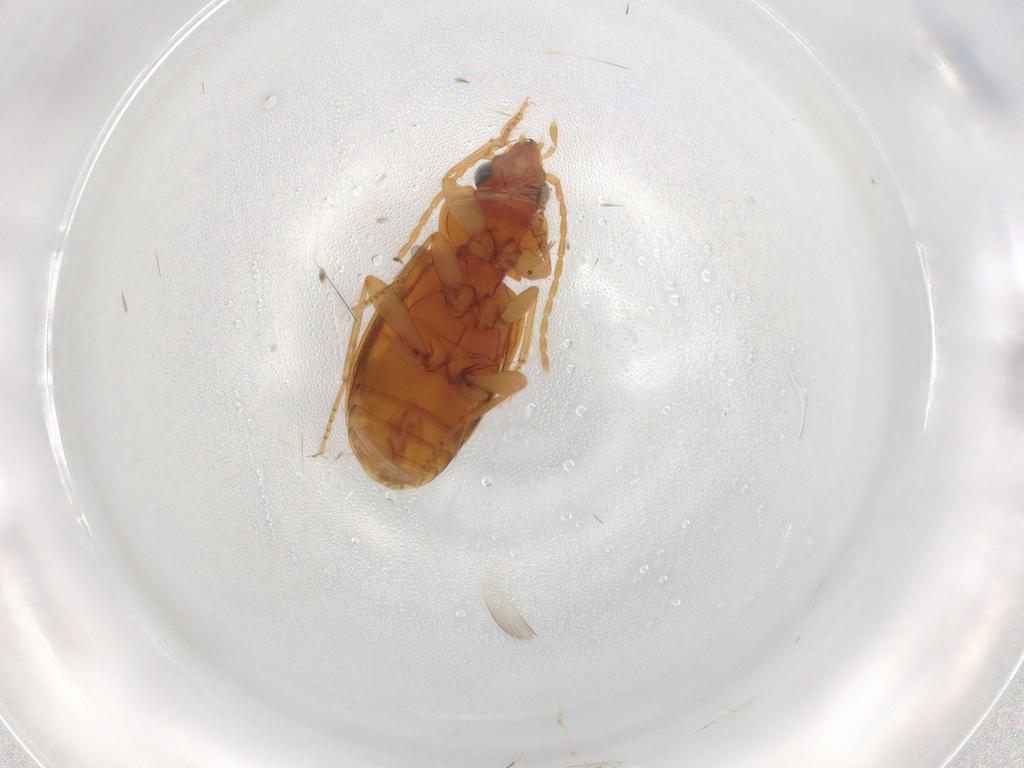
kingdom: Animalia
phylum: Arthropoda
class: Insecta
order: Coleoptera
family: Carabidae
